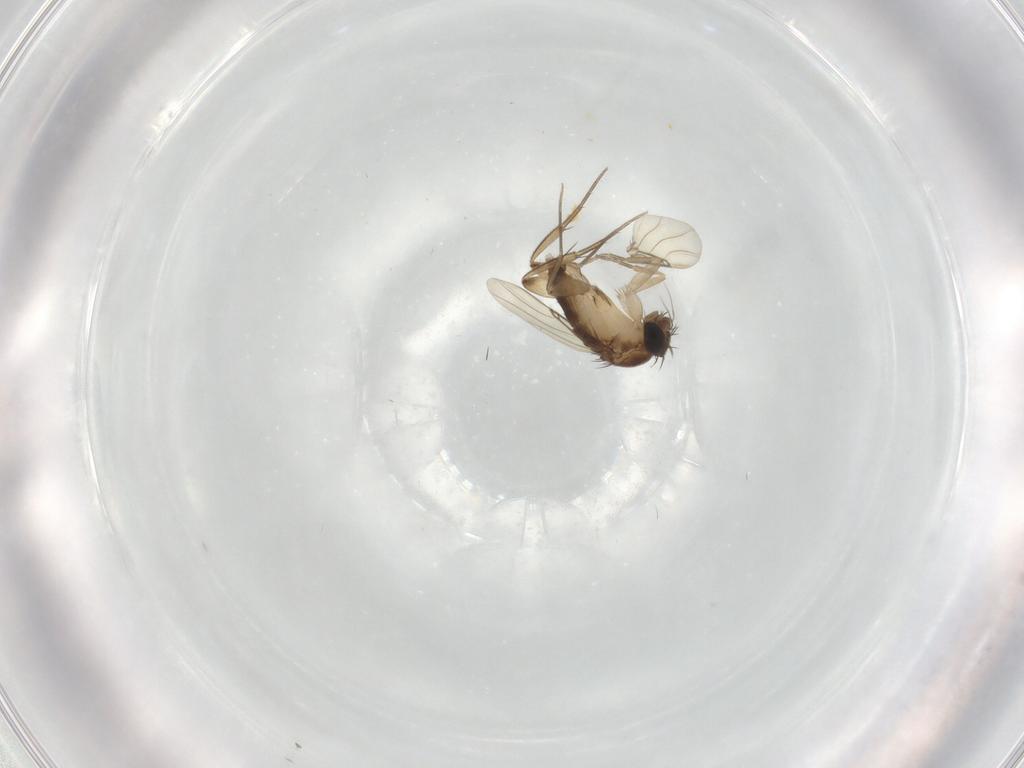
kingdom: Animalia
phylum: Arthropoda
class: Insecta
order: Diptera
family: Phoridae
